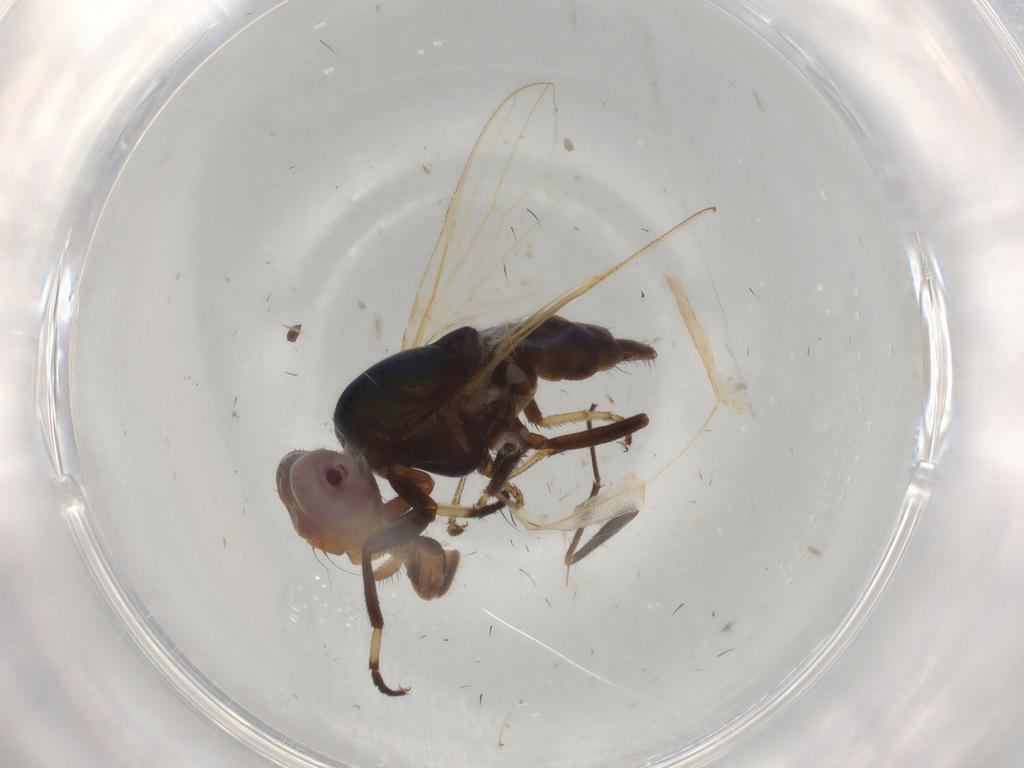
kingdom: Animalia
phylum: Arthropoda
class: Insecta
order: Diptera
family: Ulidiidae
